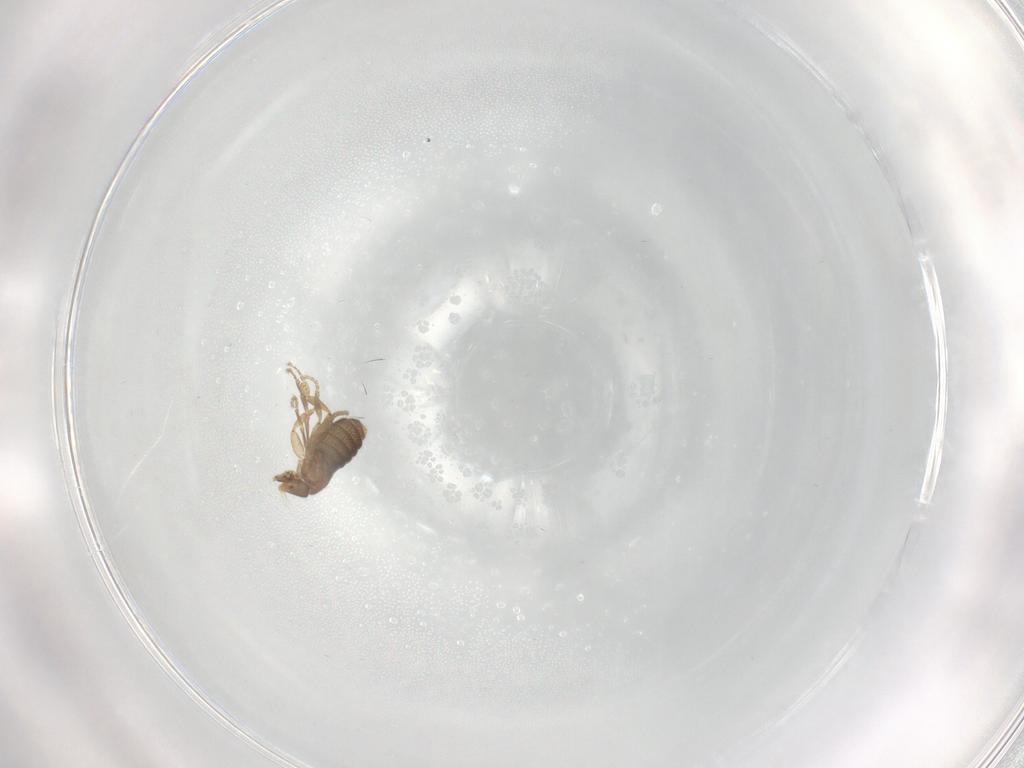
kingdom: Animalia
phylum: Arthropoda
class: Insecta
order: Diptera
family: Phoridae
